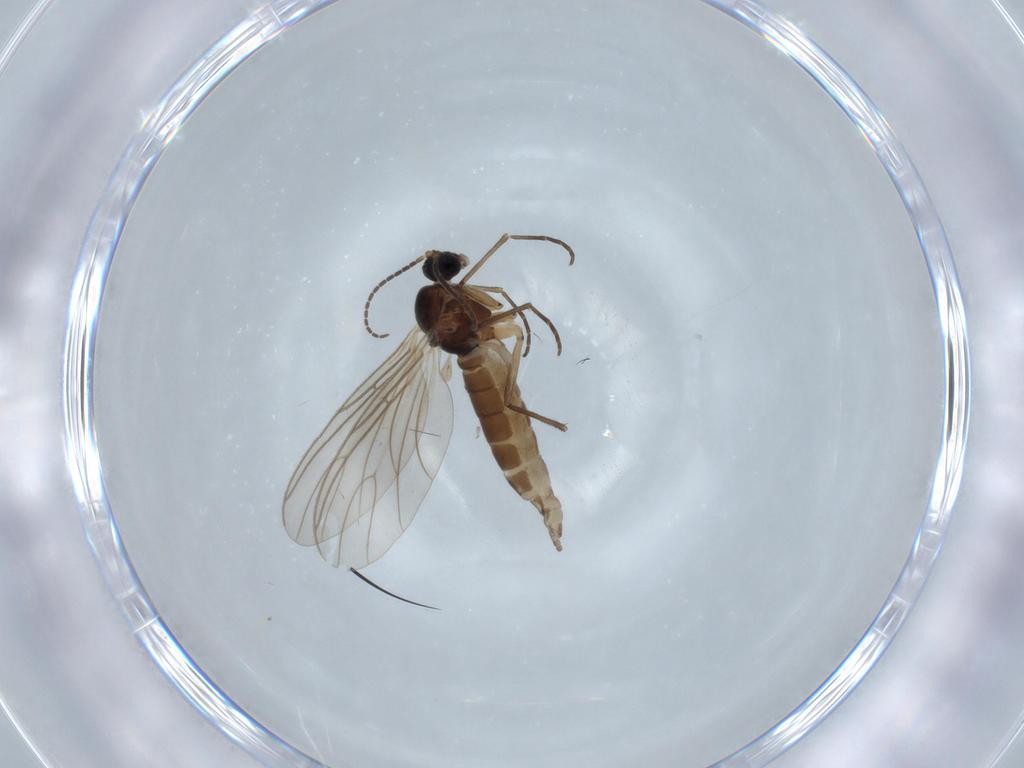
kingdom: Animalia
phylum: Arthropoda
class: Insecta
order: Diptera
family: Sciaridae
